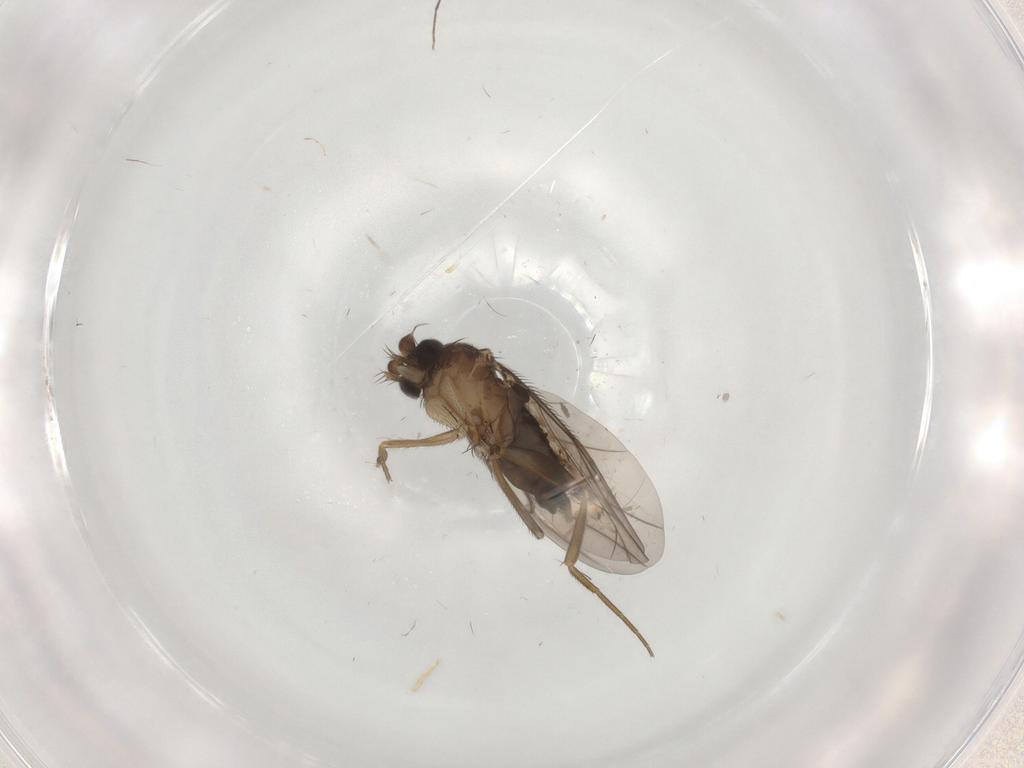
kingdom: Animalia
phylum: Arthropoda
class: Insecta
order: Diptera
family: Phoridae
